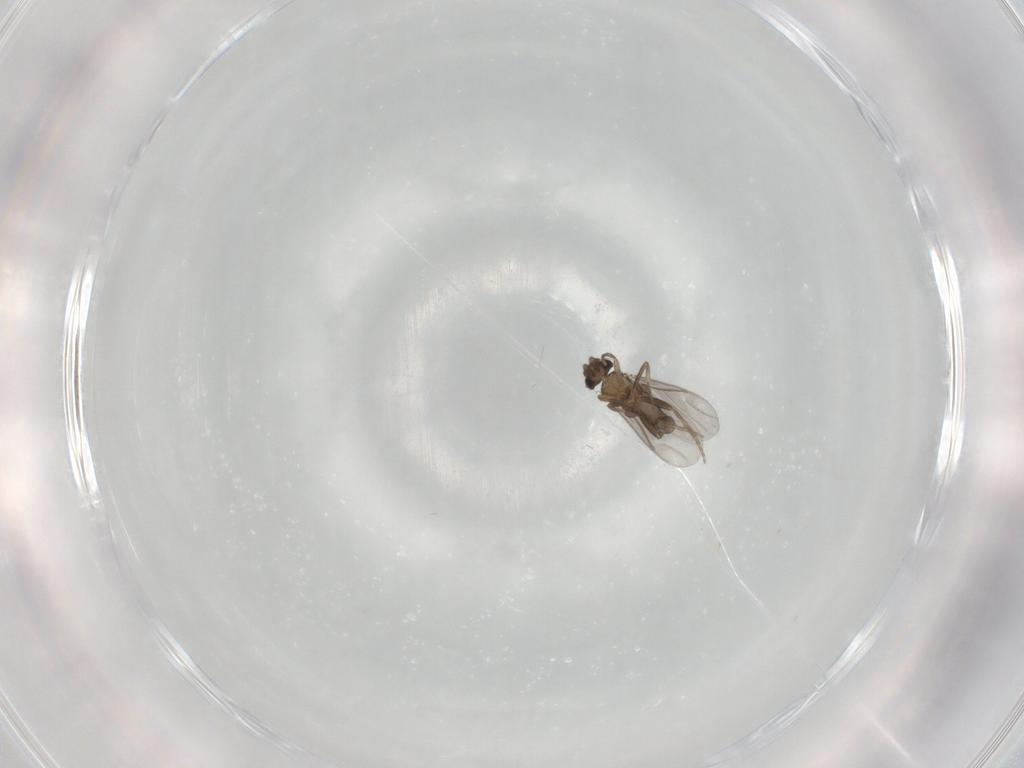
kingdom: Animalia
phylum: Arthropoda
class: Insecta
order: Diptera
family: Phoridae
